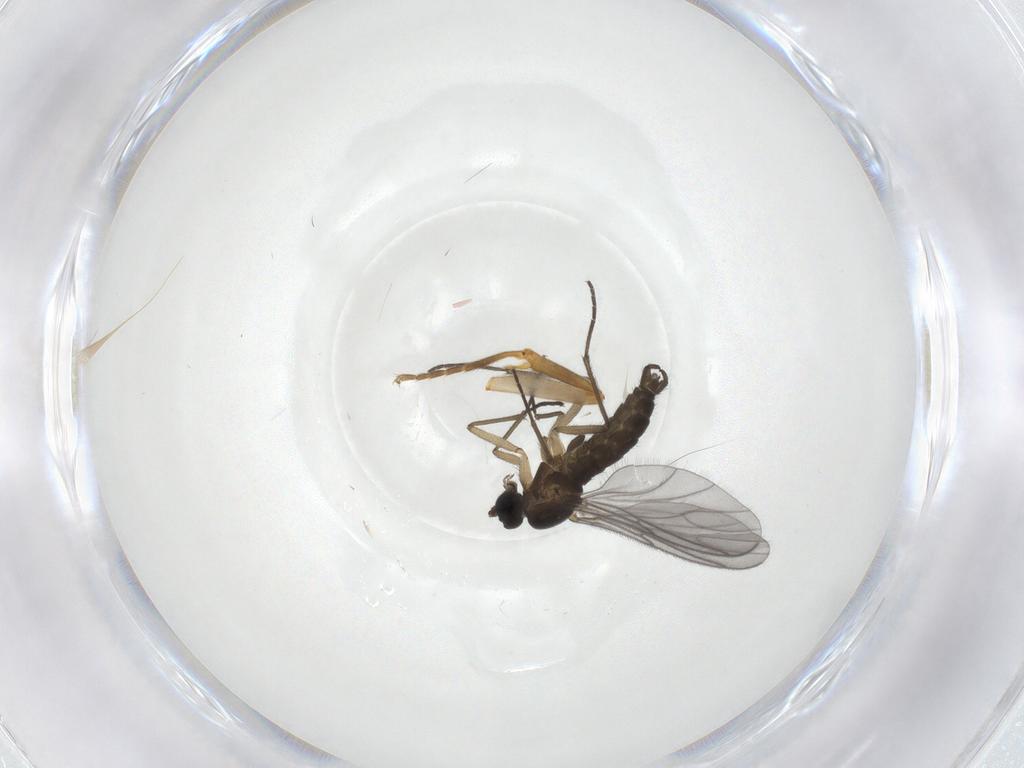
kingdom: Animalia
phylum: Arthropoda
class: Insecta
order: Diptera
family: Sciaridae
